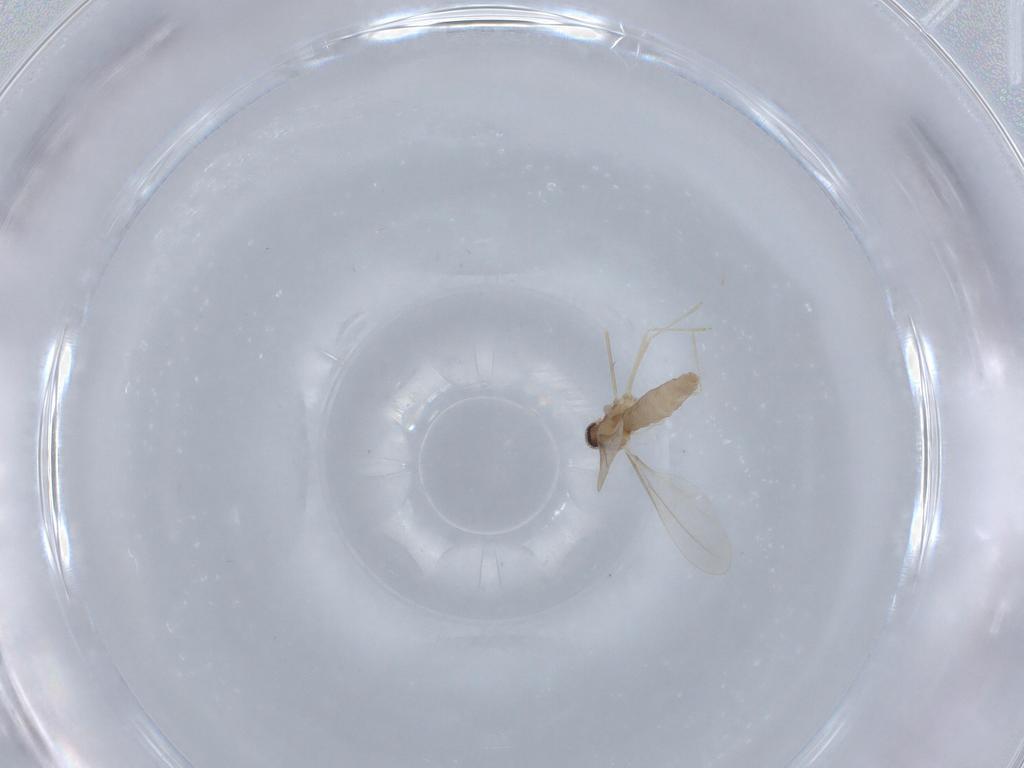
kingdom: Animalia
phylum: Arthropoda
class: Insecta
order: Diptera
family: Cecidomyiidae
